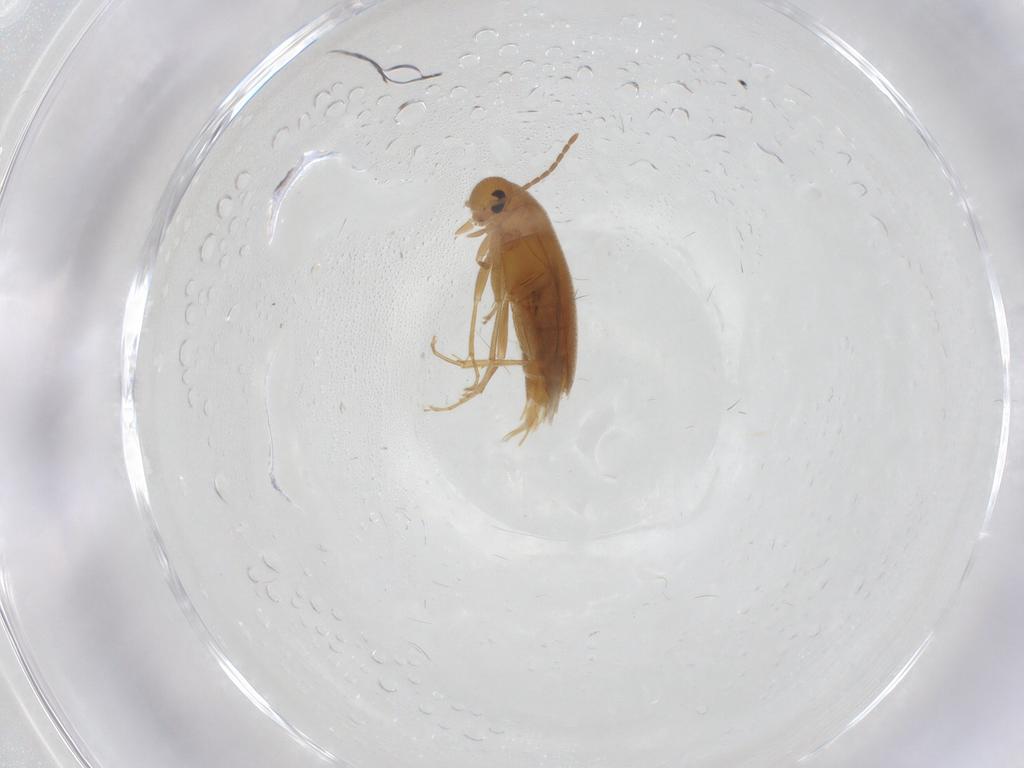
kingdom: Animalia
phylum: Arthropoda
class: Insecta
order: Coleoptera
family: Scraptiidae
